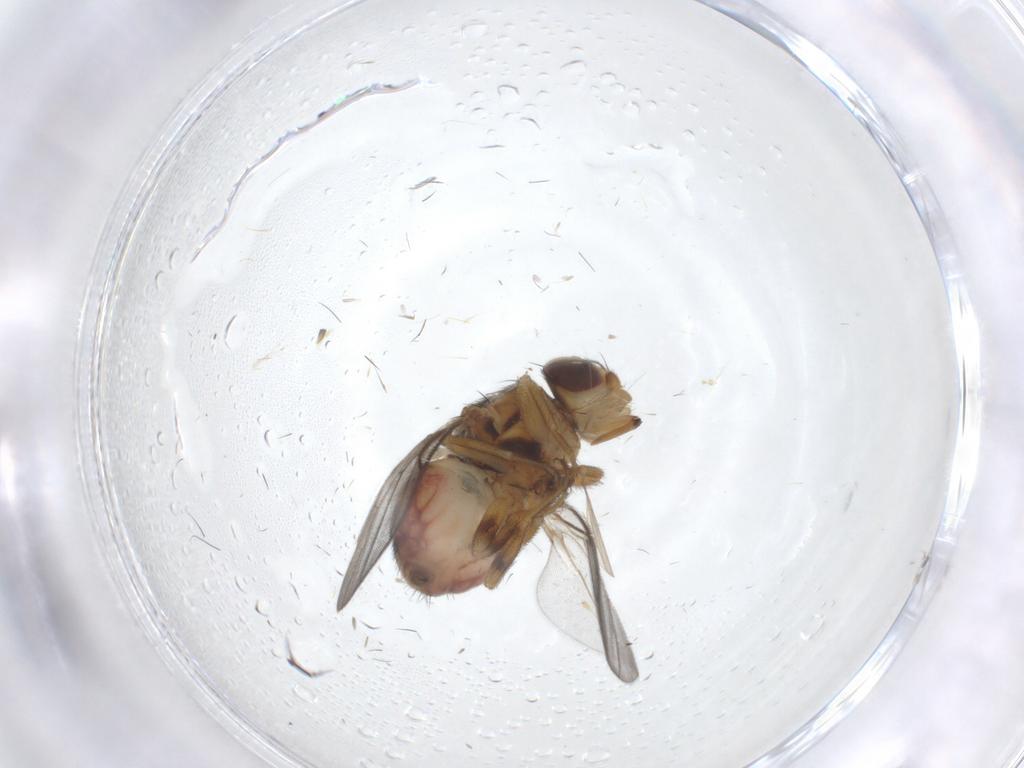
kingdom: Animalia
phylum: Arthropoda
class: Insecta
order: Diptera
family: Chloropidae
